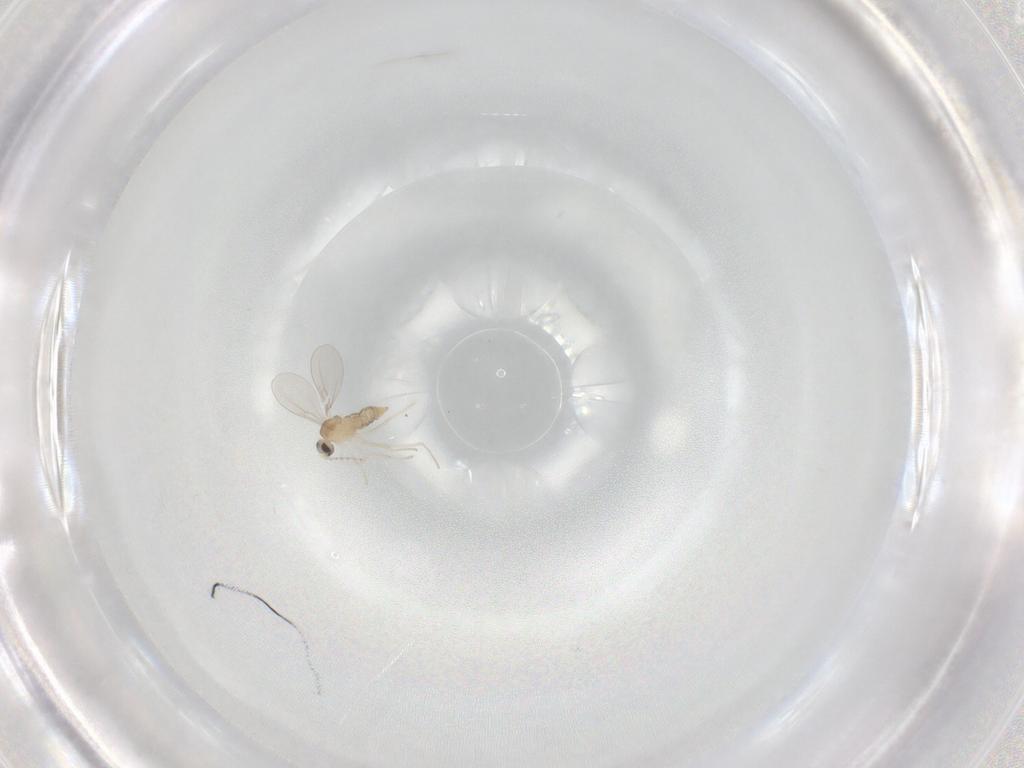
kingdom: Animalia
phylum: Arthropoda
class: Insecta
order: Diptera
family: Cecidomyiidae
